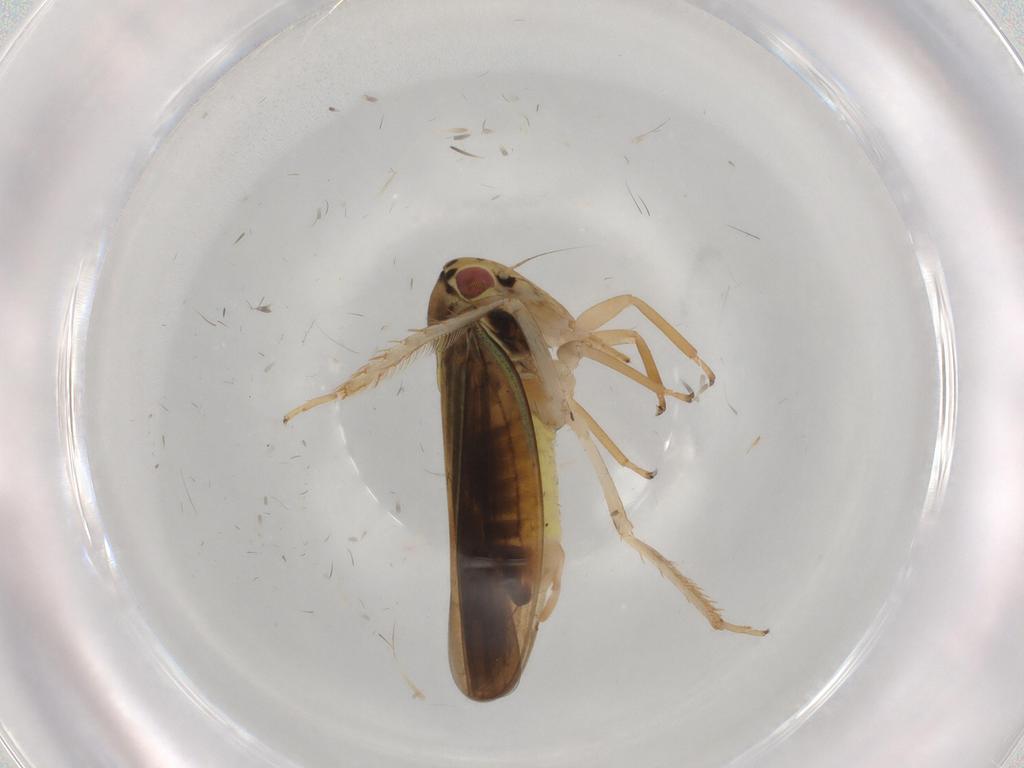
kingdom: Animalia
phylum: Arthropoda
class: Insecta
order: Hemiptera
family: Cicadellidae
